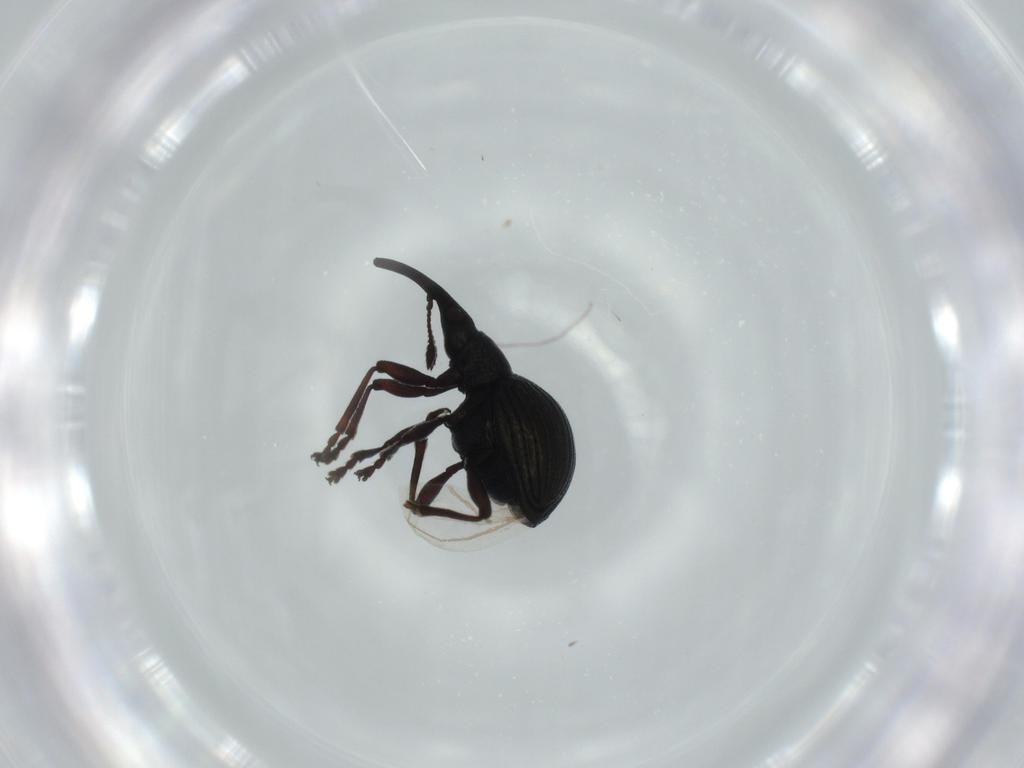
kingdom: Animalia
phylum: Arthropoda
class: Insecta
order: Coleoptera
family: Brentidae
